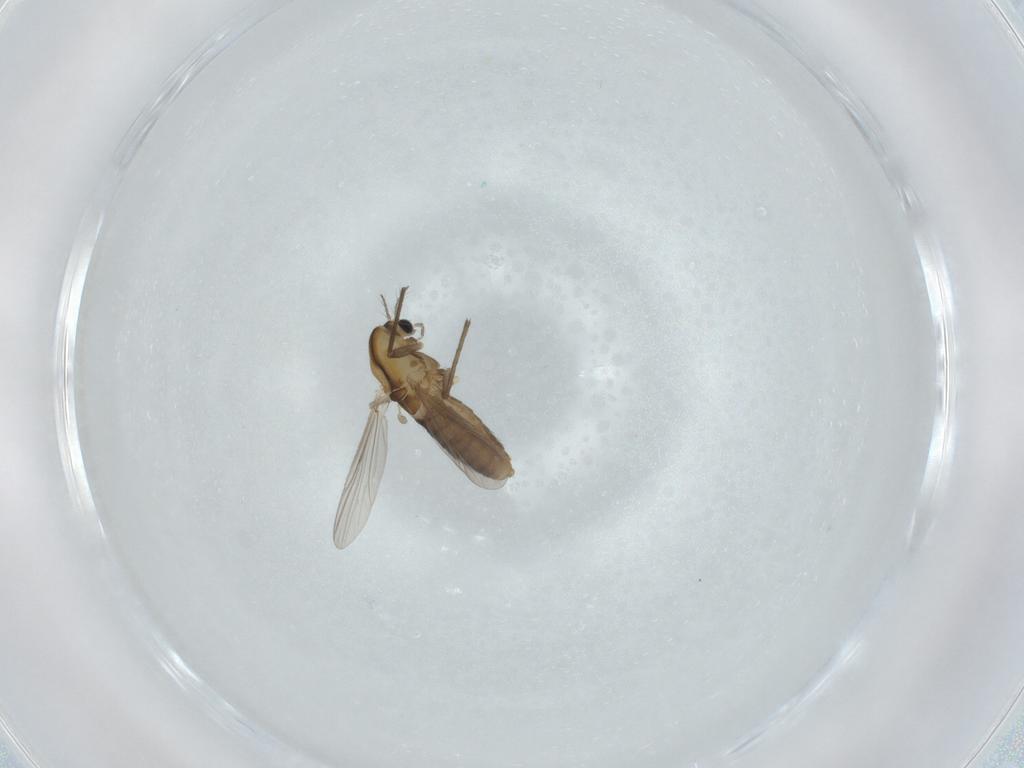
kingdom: Animalia
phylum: Arthropoda
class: Insecta
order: Diptera
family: Chironomidae
